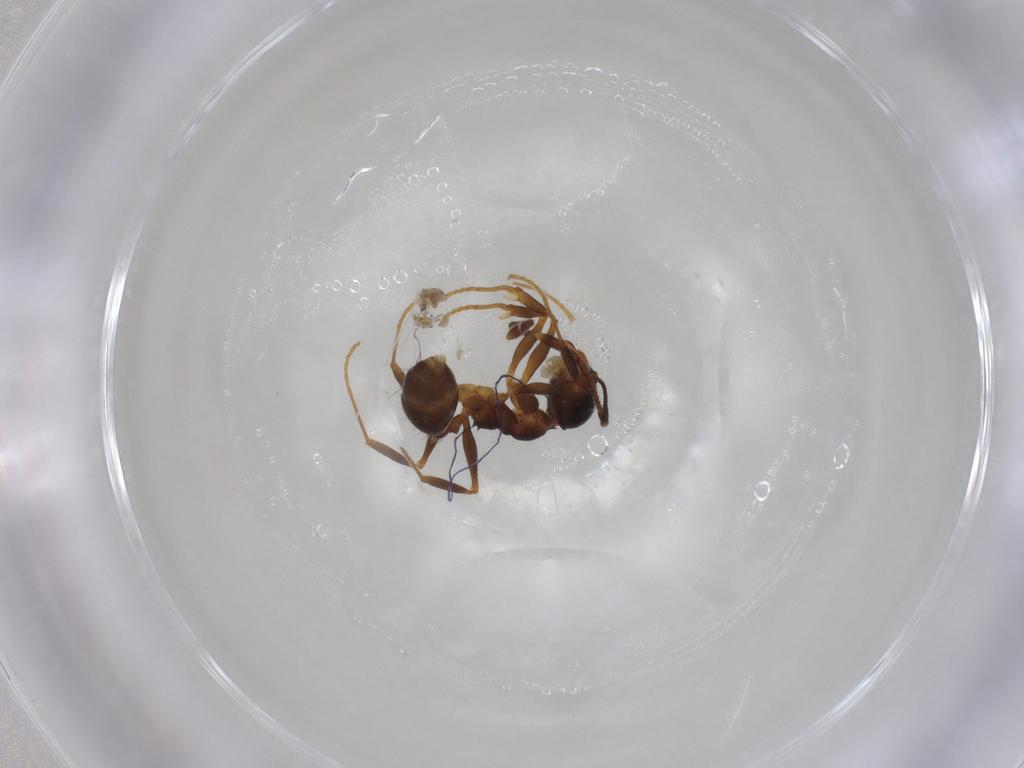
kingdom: Animalia
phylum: Arthropoda
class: Insecta
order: Hymenoptera
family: Formicidae
